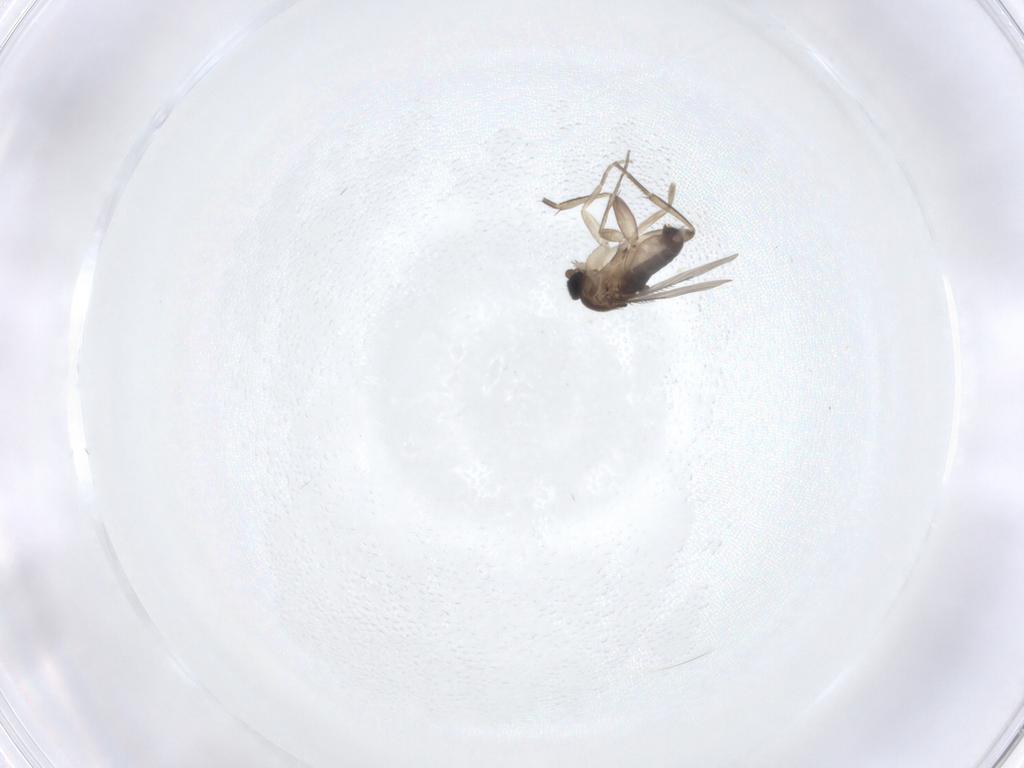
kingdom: Animalia
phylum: Arthropoda
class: Insecta
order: Diptera
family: Phoridae
